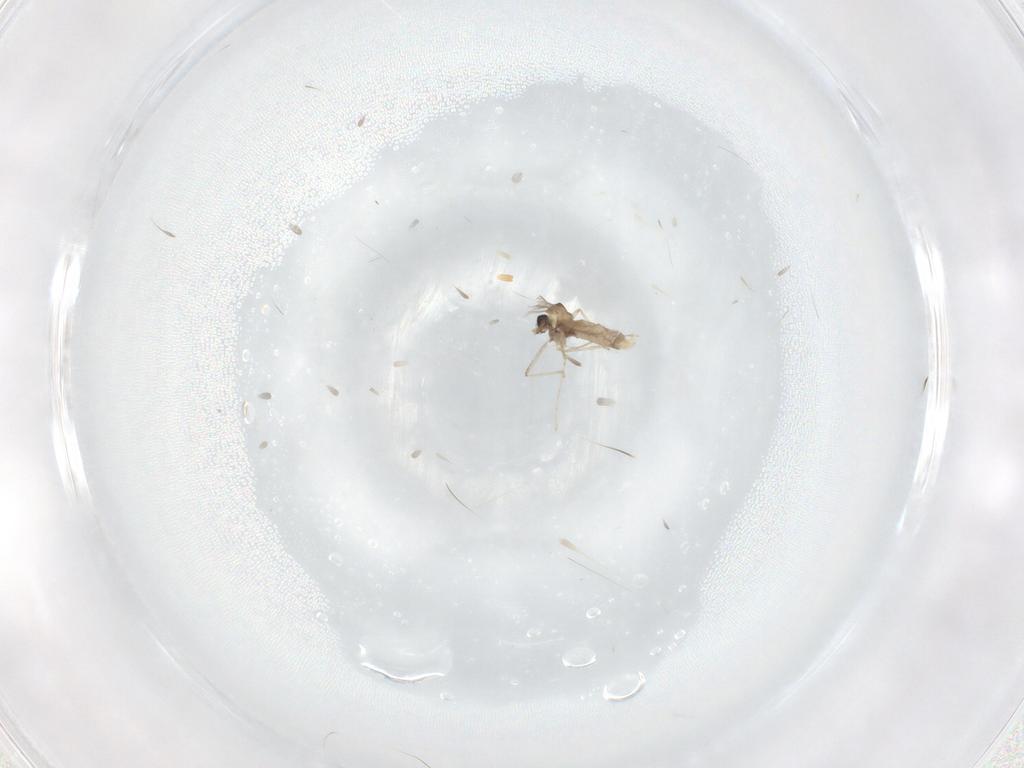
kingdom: Animalia
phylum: Arthropoda
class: Insecta
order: Diptera
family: Cecidomyiidae
